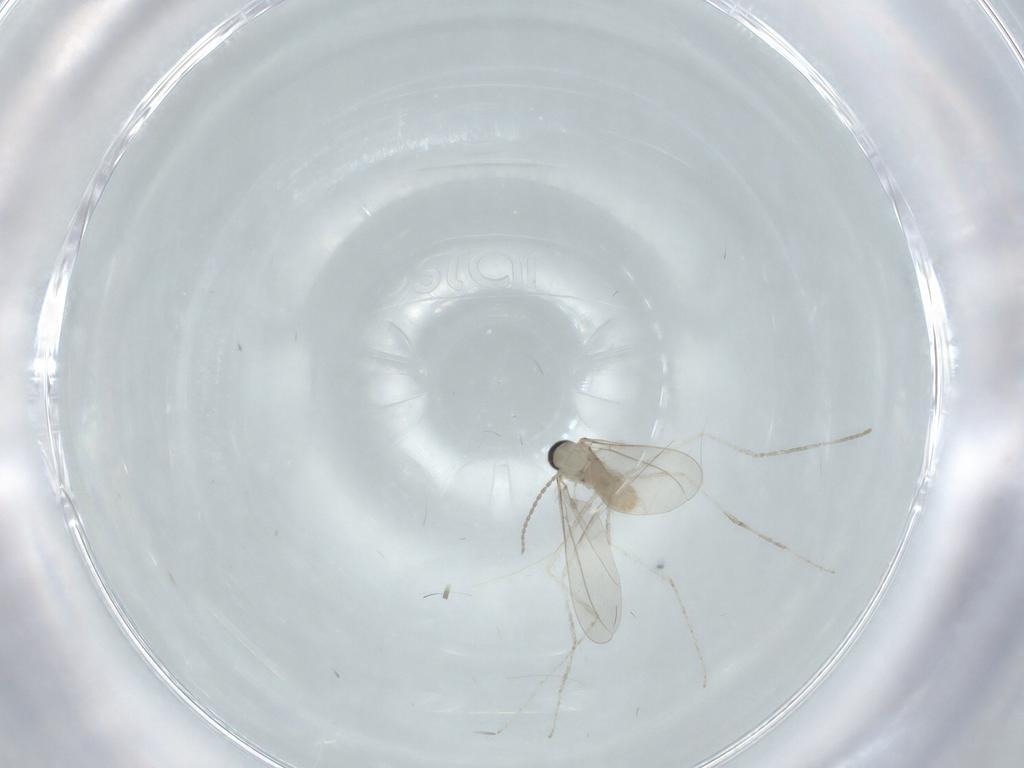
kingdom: Animalia
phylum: Arthropoda
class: Insecta
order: Diptera
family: Cecidomyiidae
